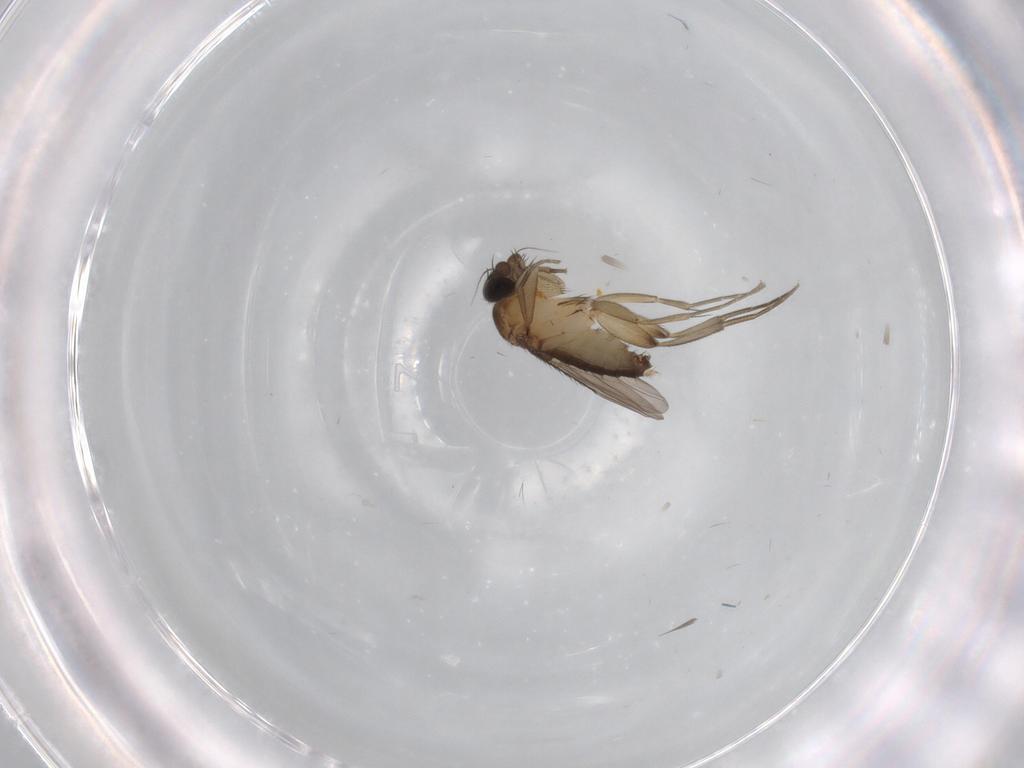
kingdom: Animalia
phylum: Arthropoda
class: Insecta
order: Diptera
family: Phoridae
